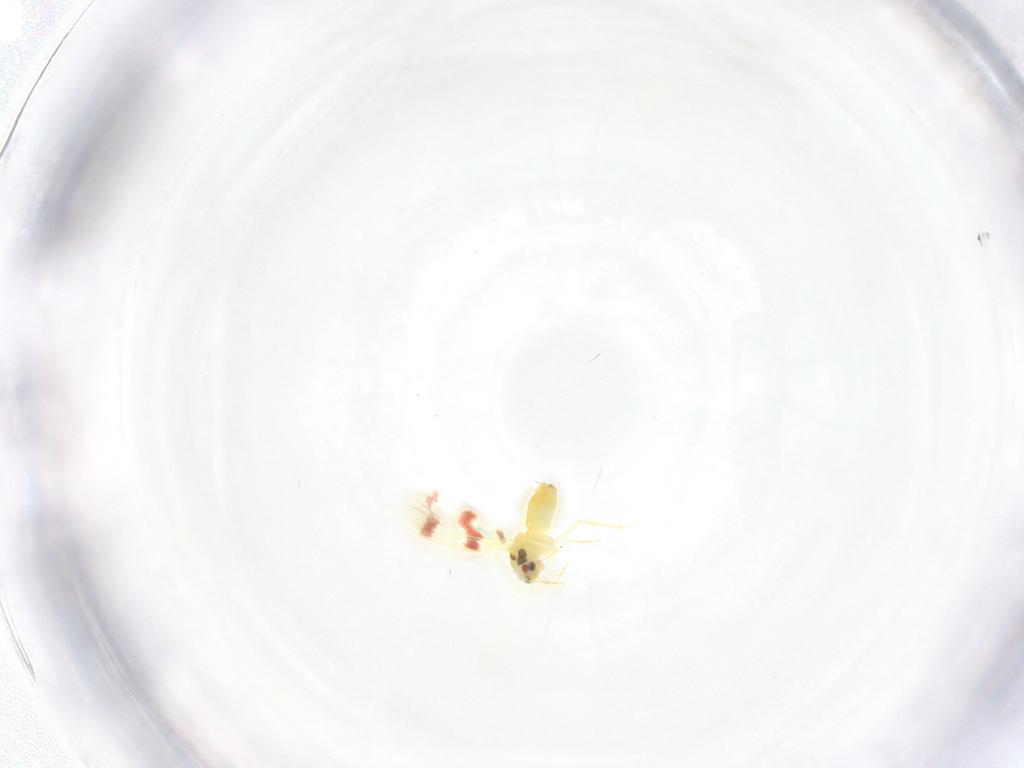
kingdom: Animalia
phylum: Arthropoda
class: Insecta
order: Hemiptera
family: Aleyrodidae
